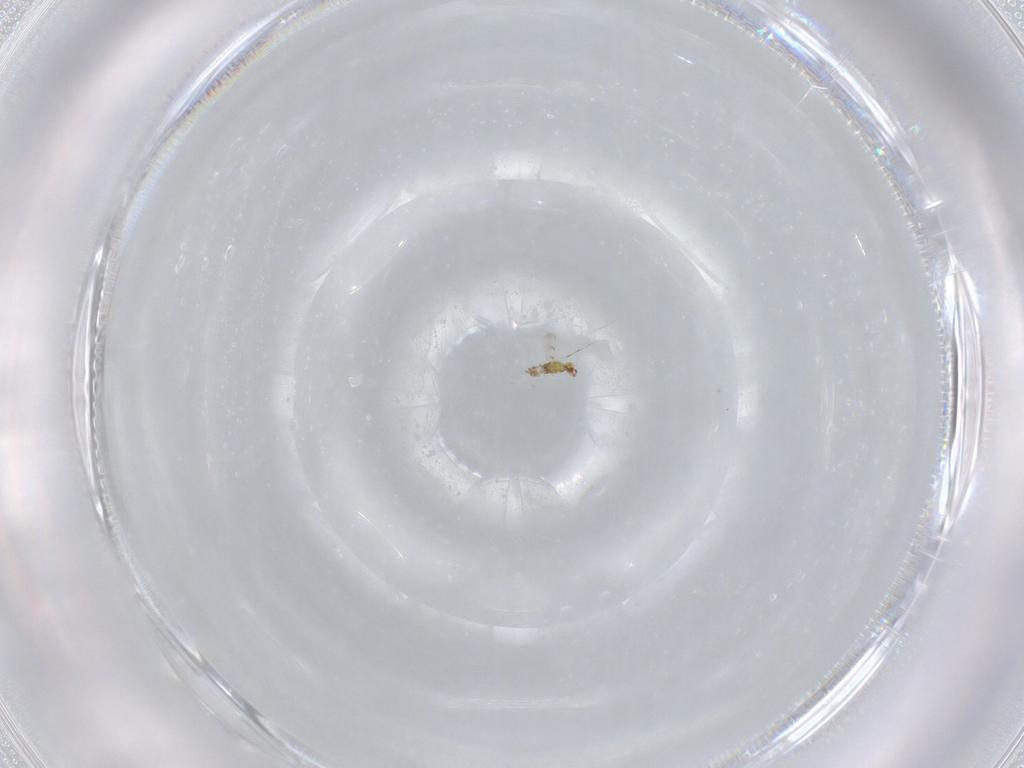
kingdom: Animalia
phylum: Arthropoda
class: Insecta
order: Hymenoptera
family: Eulophidae
